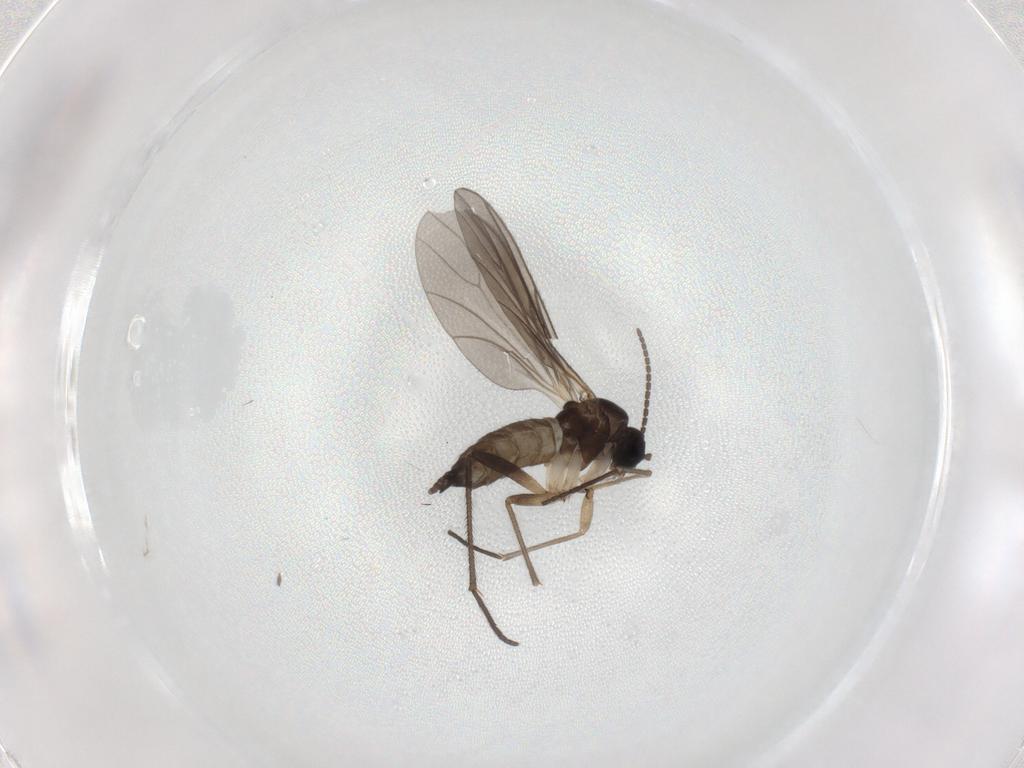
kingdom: Animalia
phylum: Arthropoda
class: Insecta
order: Diptera
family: Sciaridae
